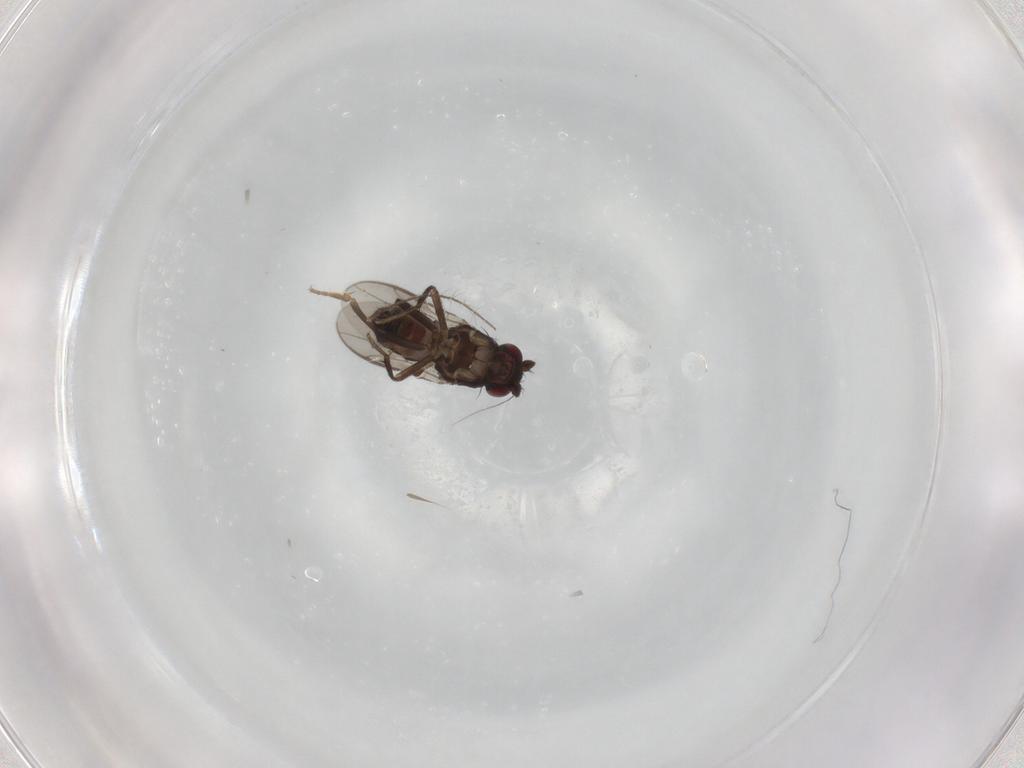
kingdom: Animalia
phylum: Arthropoda
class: Insecta
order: Diptera
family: Sphaeroceridae
